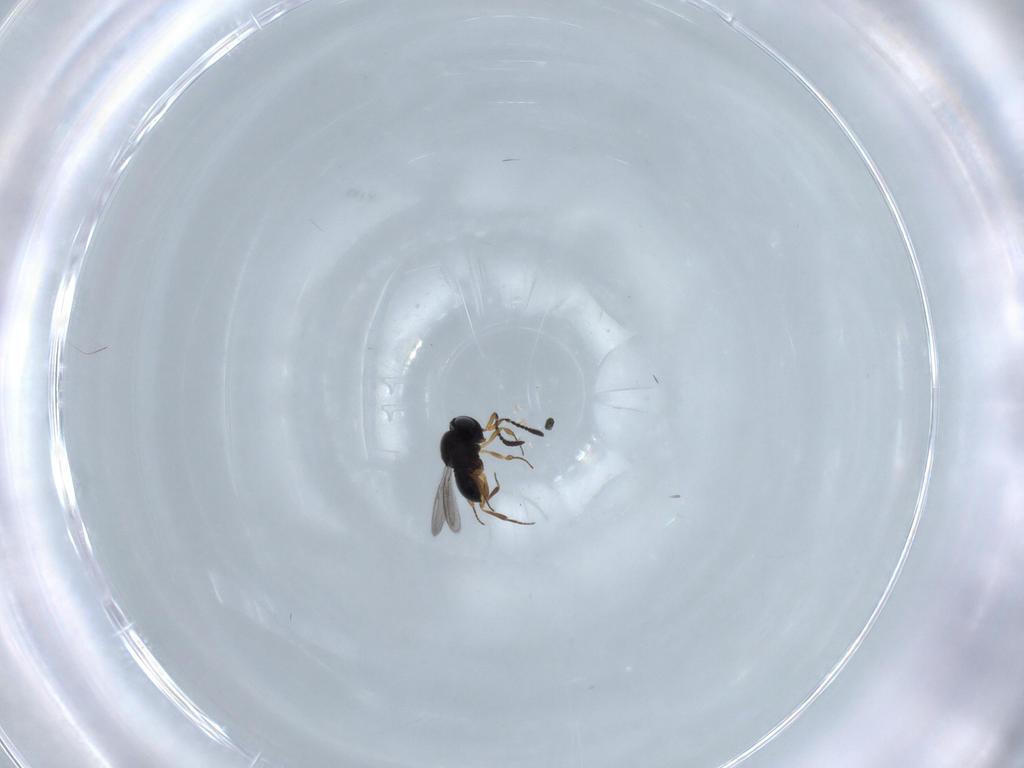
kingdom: Animalia
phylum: Arthropoda
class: Insecta
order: Hymenoptera
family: Scelionidae
